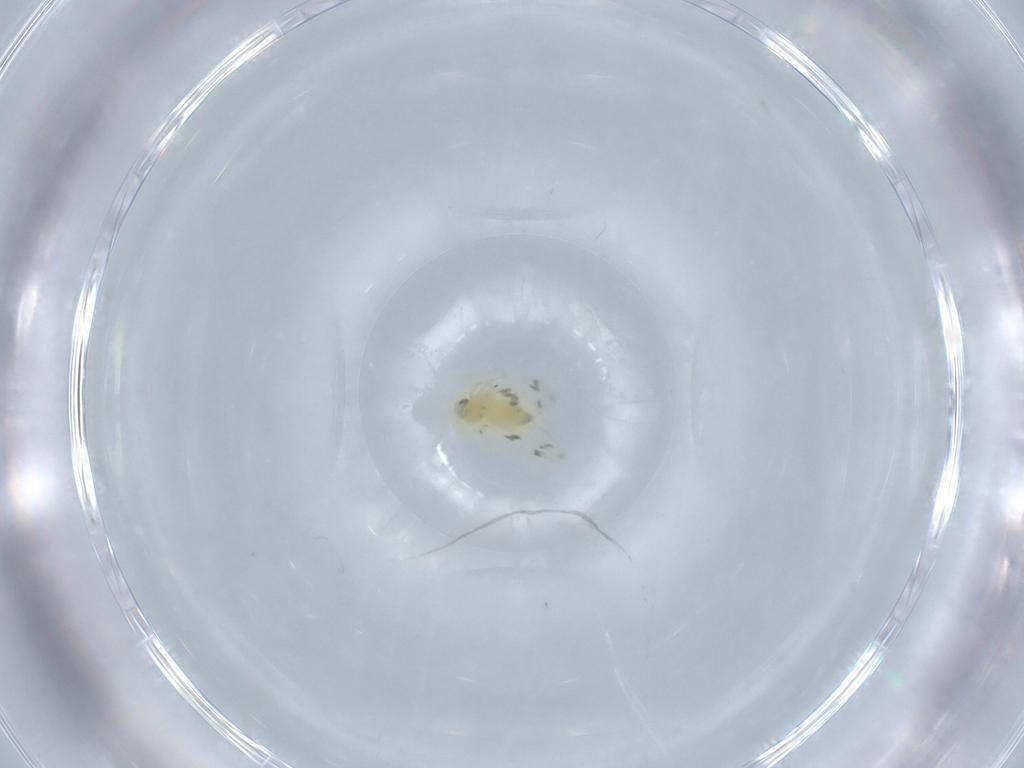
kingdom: Animalia
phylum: Arthropoda
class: Insecta
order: Hemiptera
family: Aleyrodidae
